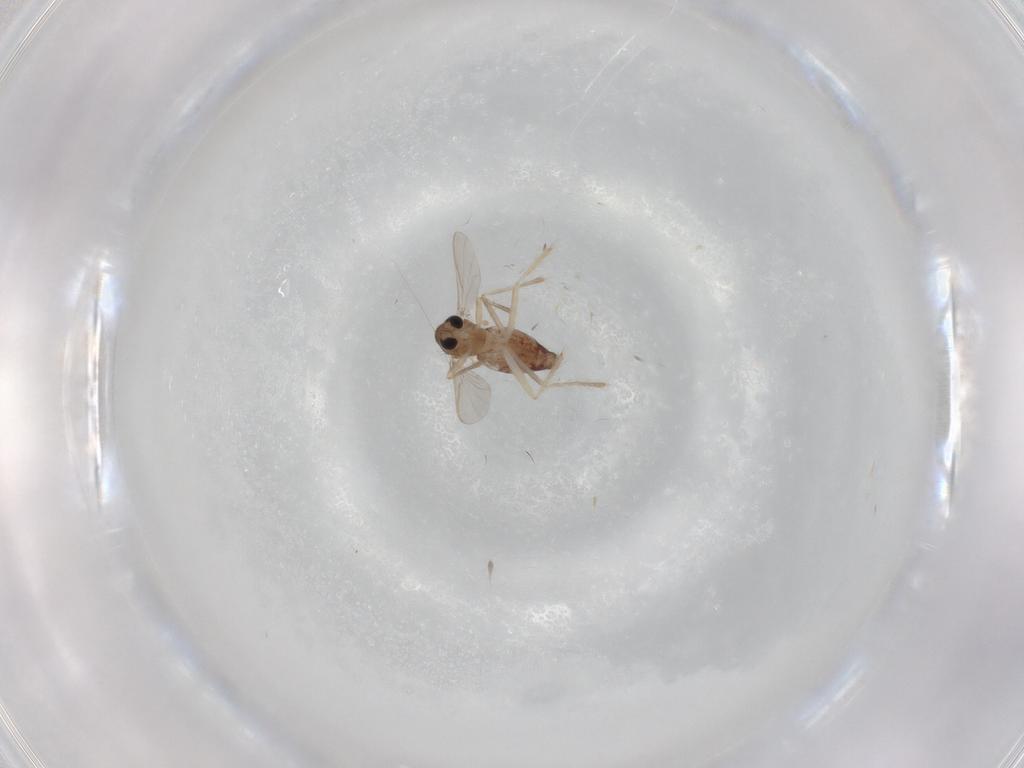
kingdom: Animalia
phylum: Arthropoda
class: Insecta
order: Diptera
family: Chironomidae
